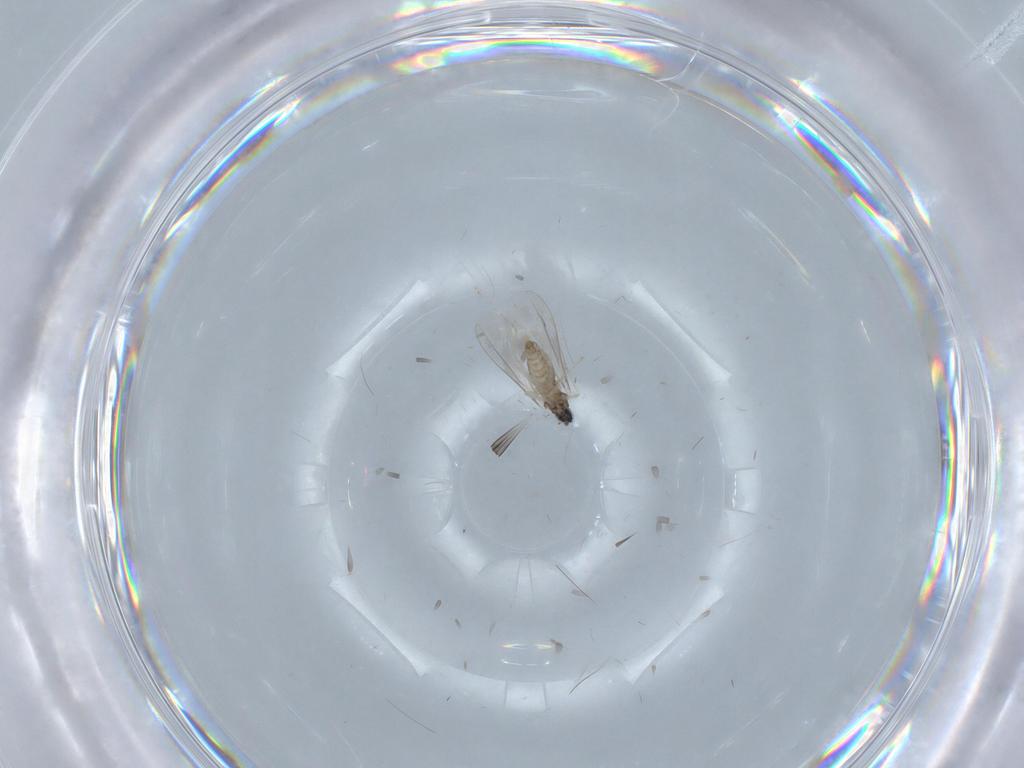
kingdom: Animalia
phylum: Arthropoda
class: Insecta
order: Diptera
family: Cecidomyiidae
